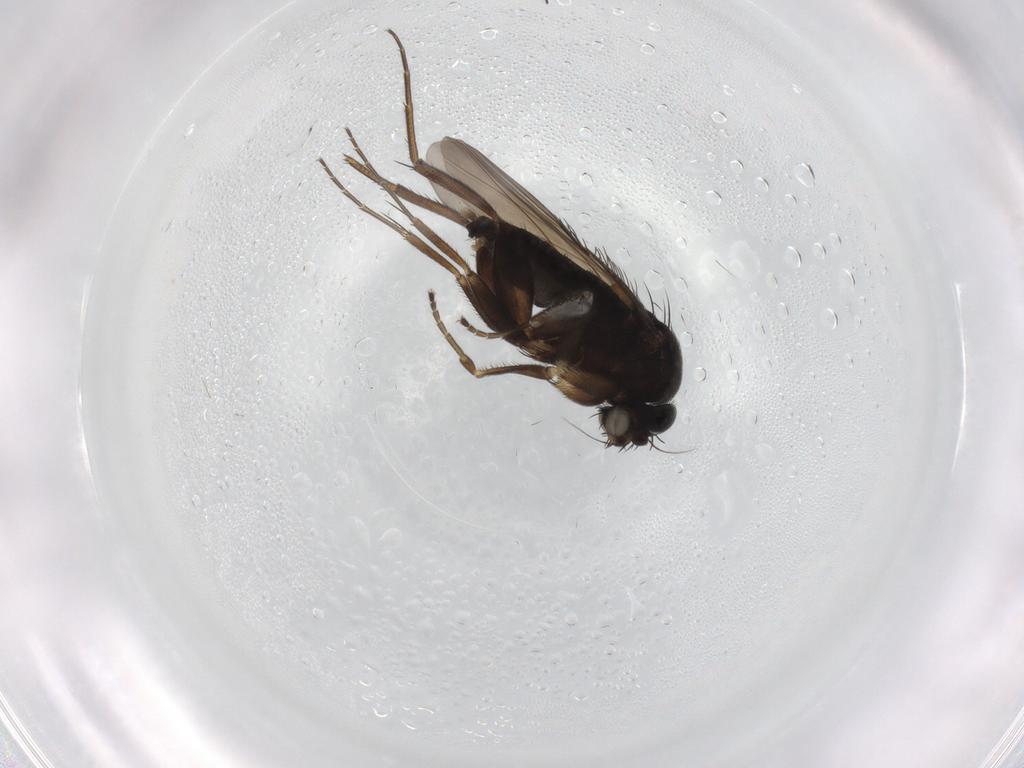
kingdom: Animalia
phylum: Arthropoda
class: Insecta
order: Diptera
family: Phoridae
